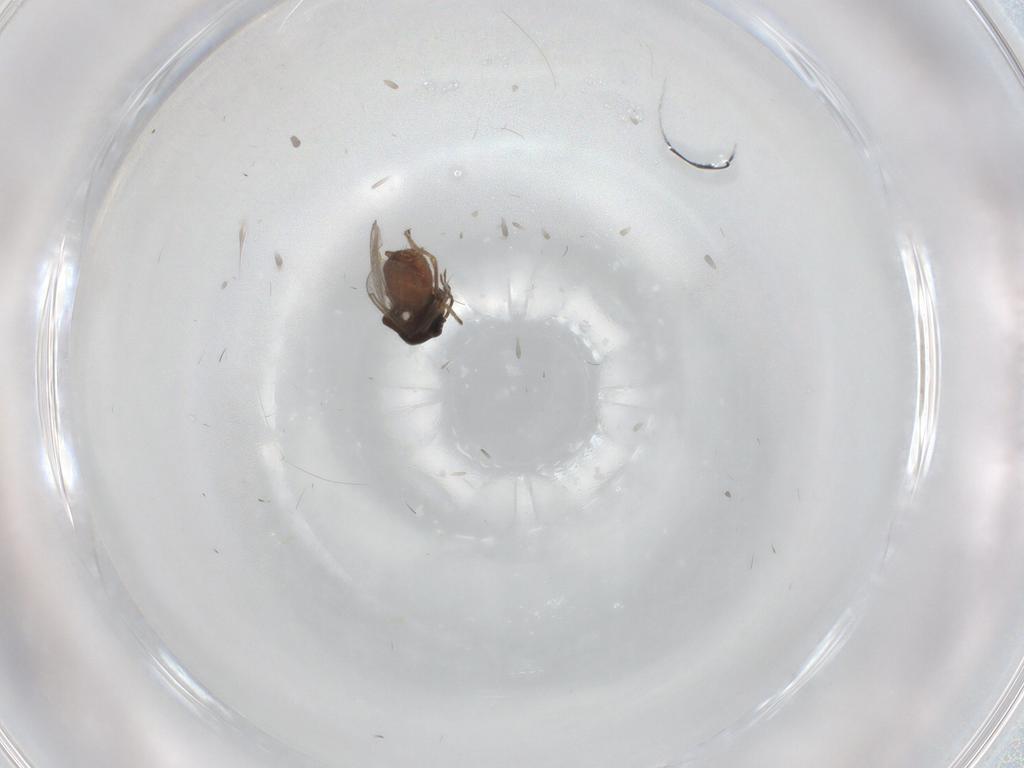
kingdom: Animalia
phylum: Arthropoda
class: Insecta
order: Diptera
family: Ceratopogonidae
